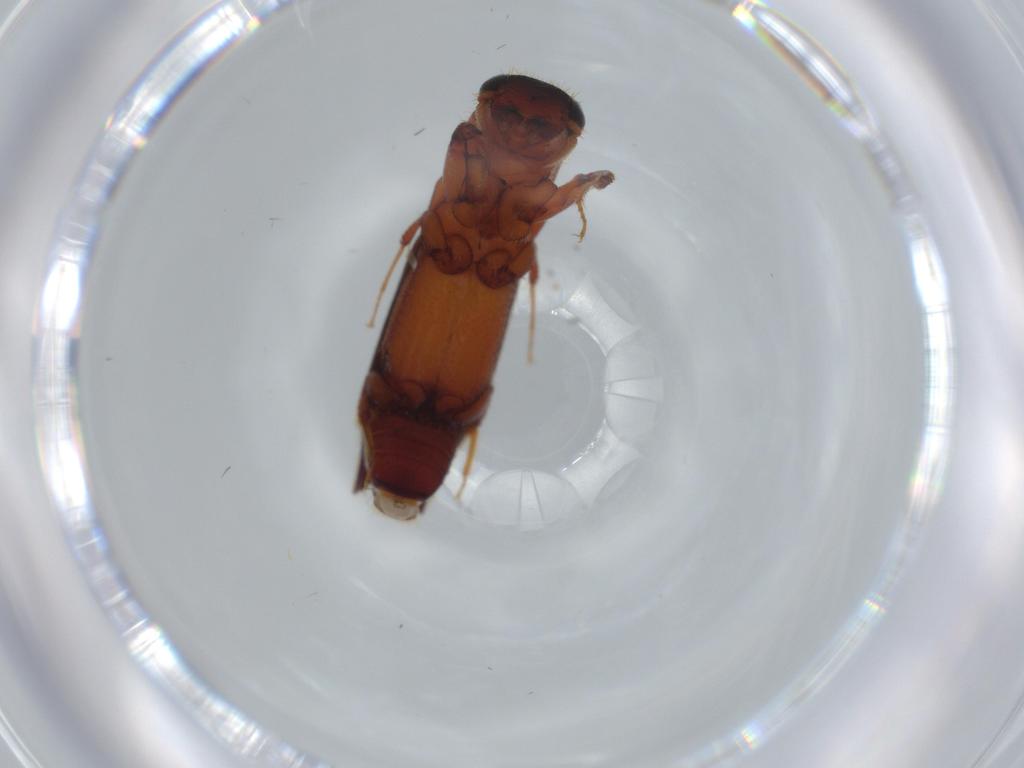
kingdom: Animalia
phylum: Arthropoda
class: Insecta
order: Coleoptera
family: Curculionidae
